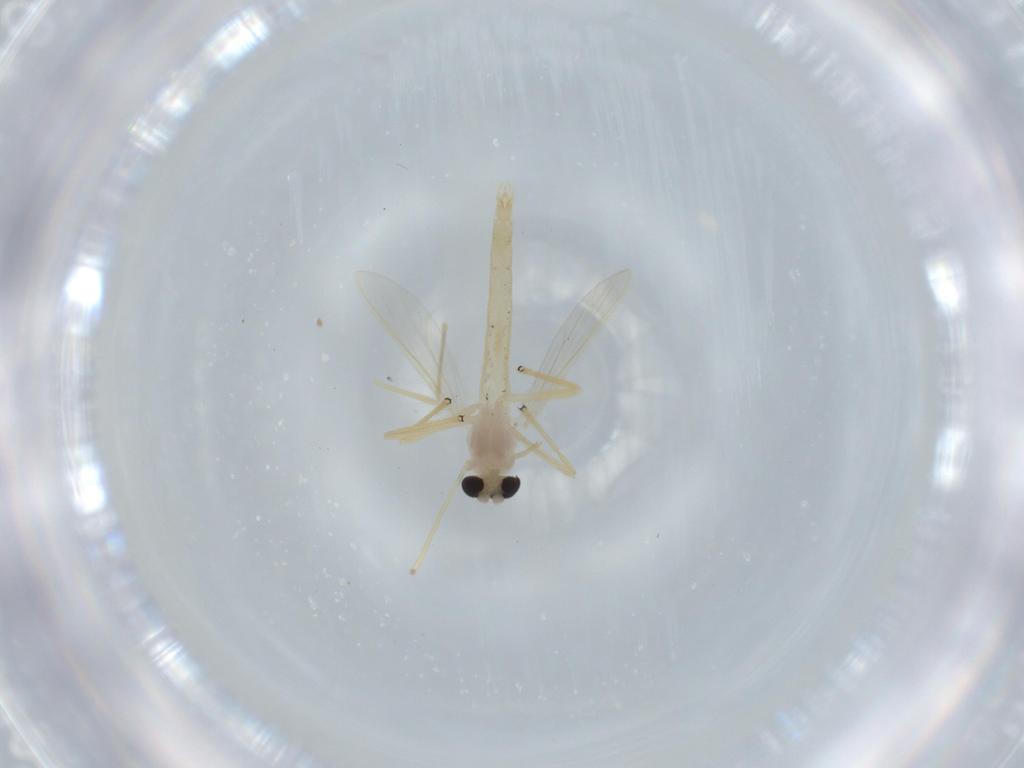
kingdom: Animalia
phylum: Arthropoda
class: Insecta
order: Diptera
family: Chironomidae
